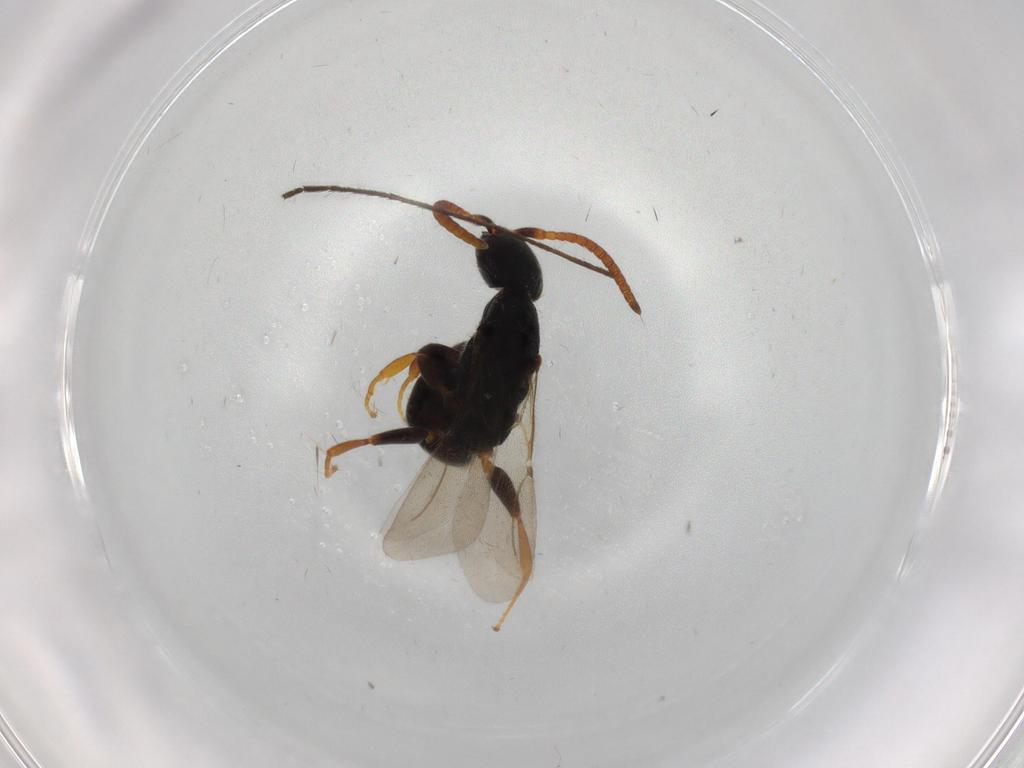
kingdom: Animalia
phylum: Arthropoda
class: Insecta
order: Hymenoptera
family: Bethylidae
